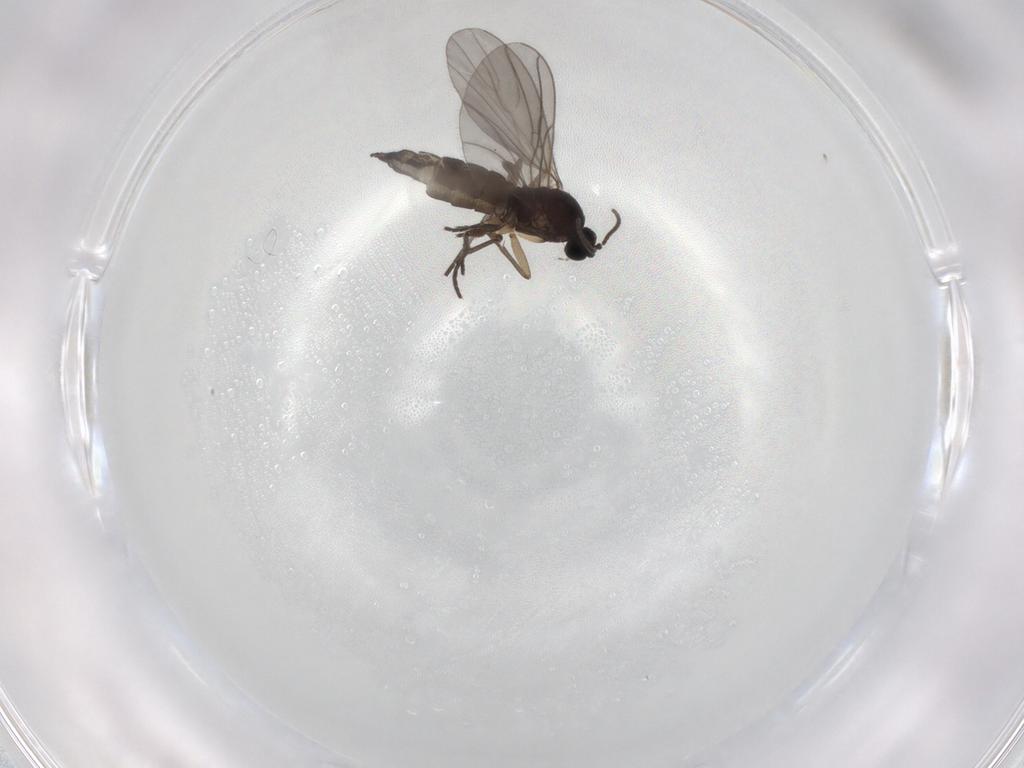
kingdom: Animalia
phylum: Arthropoda
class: Insecta
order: Diptera
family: Sciaridae
